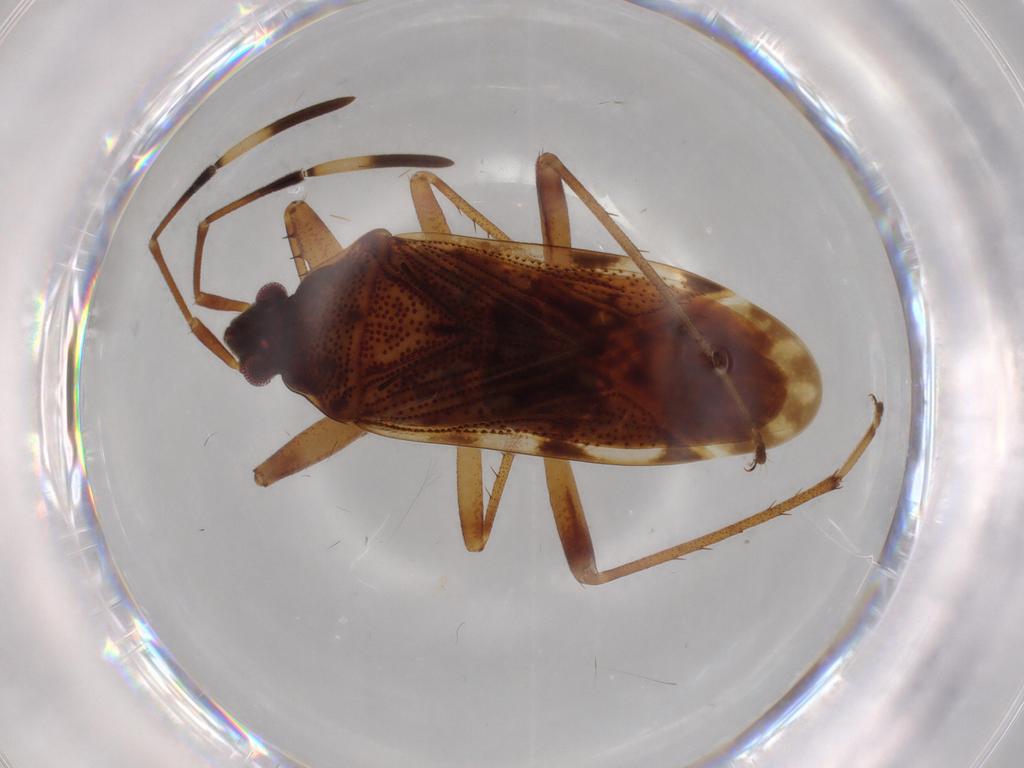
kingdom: Animalia
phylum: Arthropoda
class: Insecta
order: Hemiptera
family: Rhyparochromidae
